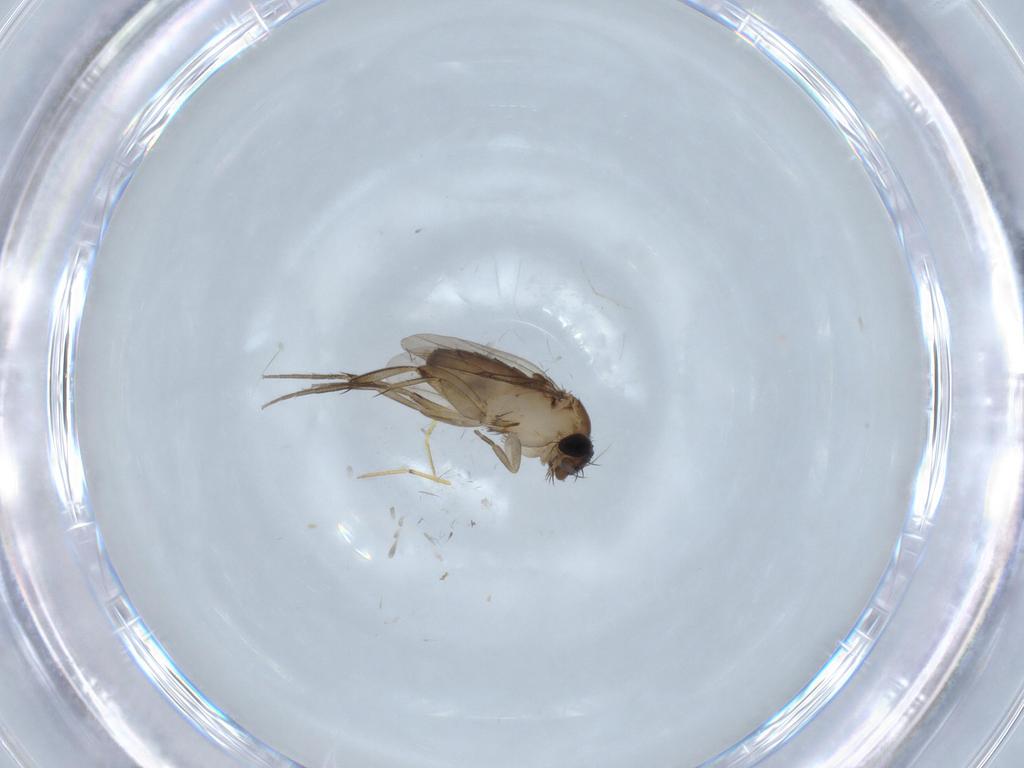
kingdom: Animalia
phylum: Arthropoda
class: Insecta
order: Diptera
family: Phoridae
